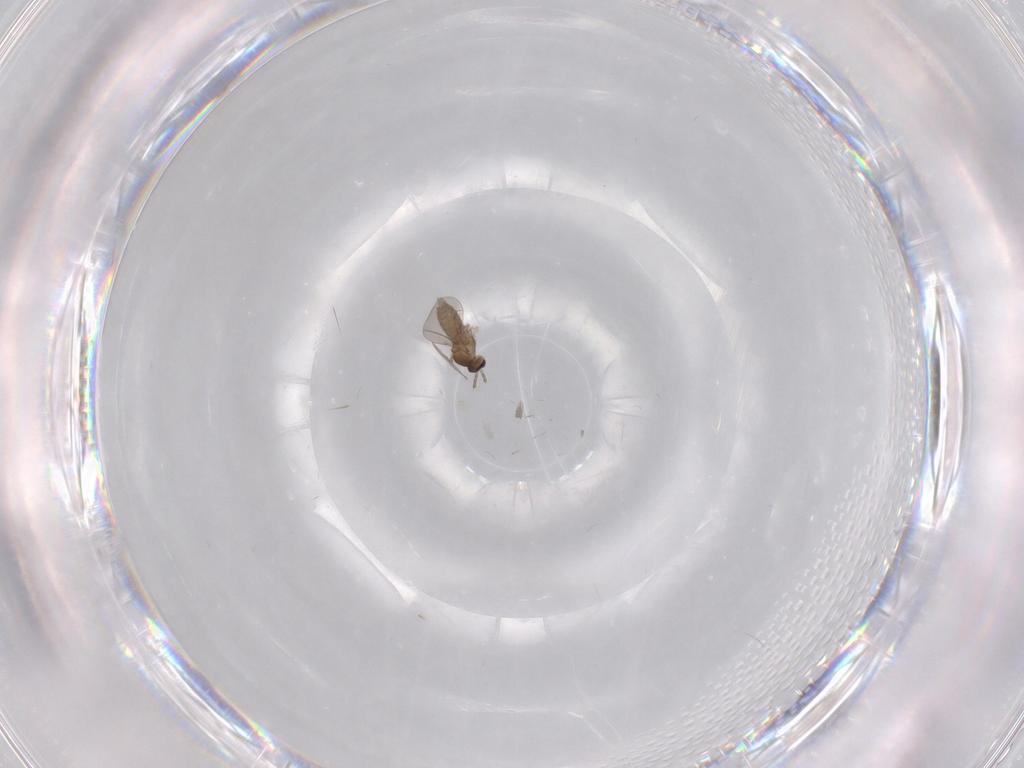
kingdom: Animalia
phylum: Arthropoda
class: Insecta
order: Diptera
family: Cecidomyiidae
